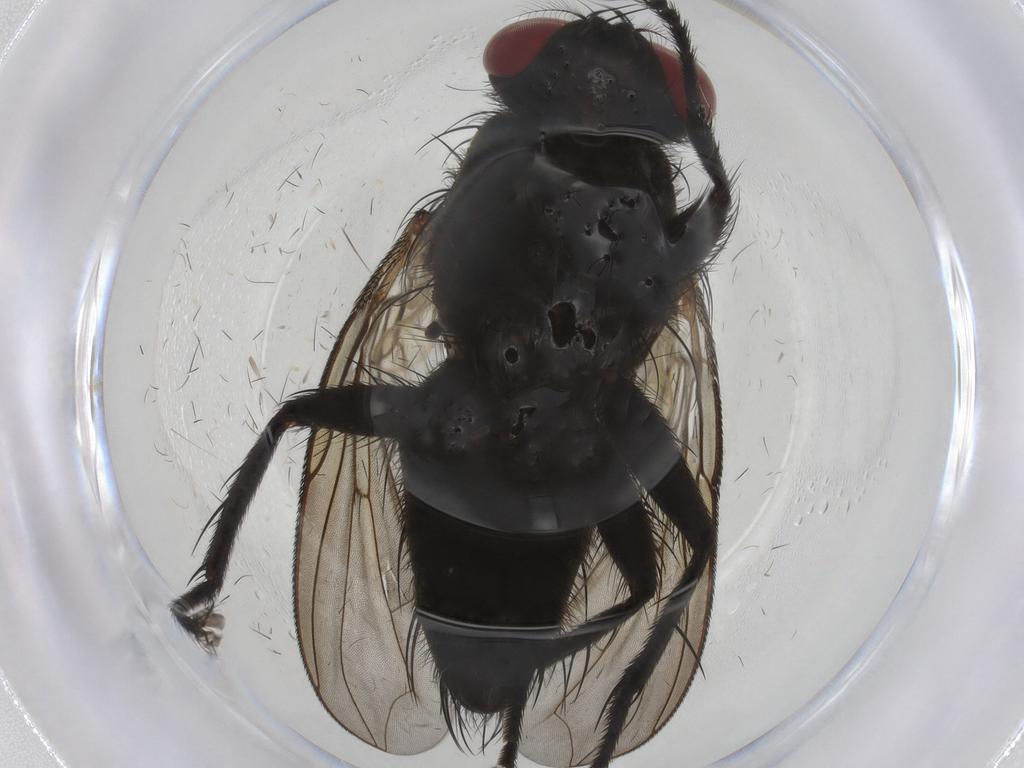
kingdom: Animalia
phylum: Arthropoda
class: Insecta
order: Diptera
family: Sarcophagidae
